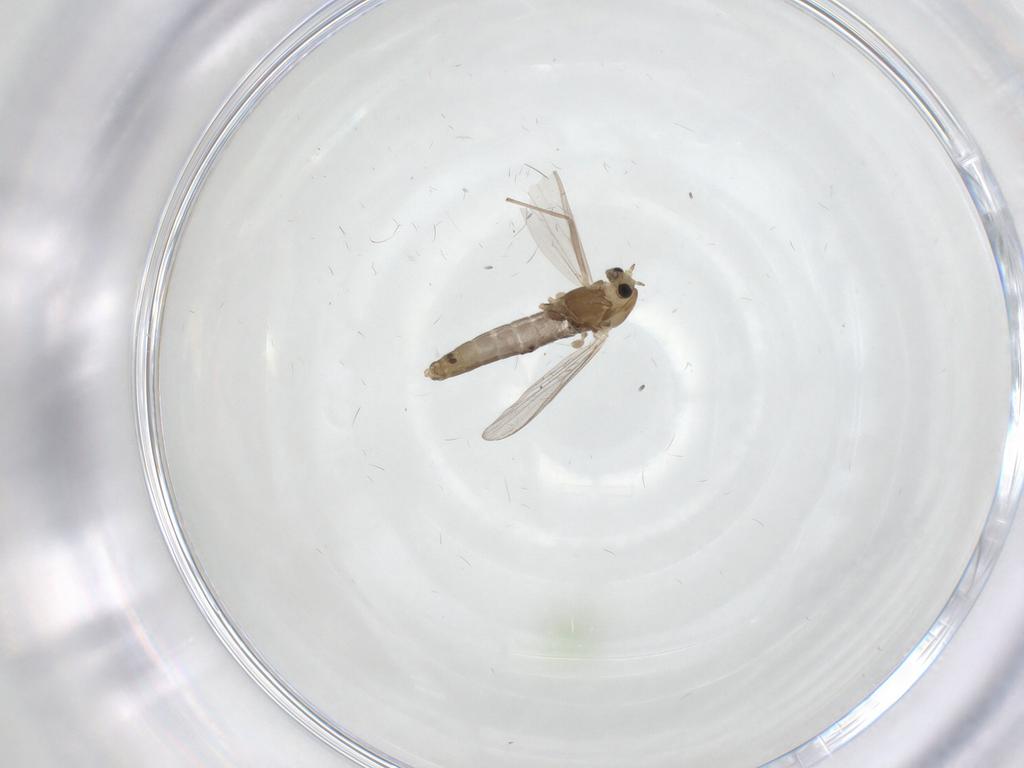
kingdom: Animalia
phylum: Arthropoda
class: Insecta
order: Diptera
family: Chironomidae
